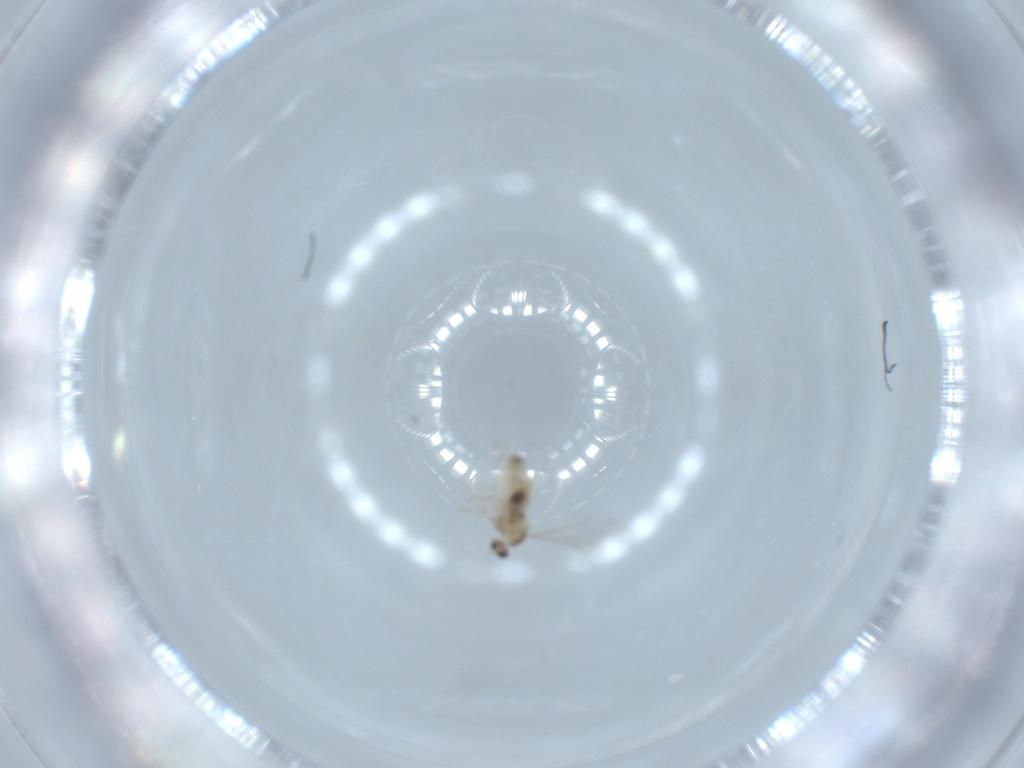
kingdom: Animalia
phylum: Arthropoda
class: Insecta
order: Diptera
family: Cecidomyiidae
